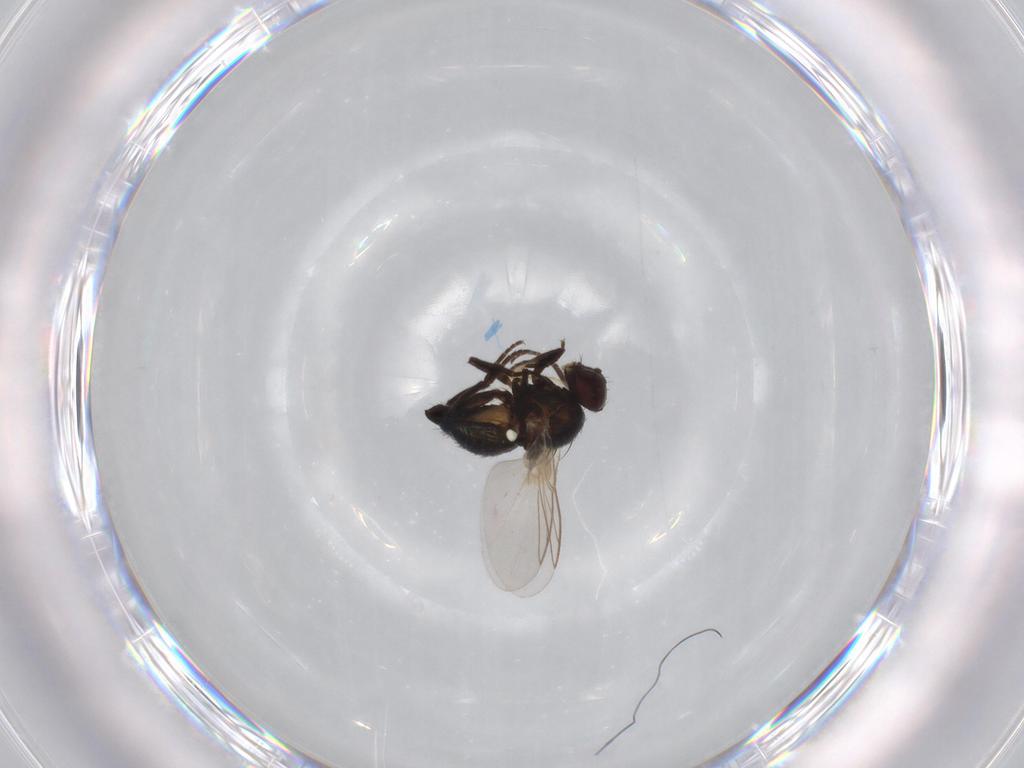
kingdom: Animalia
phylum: Arthropoda
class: Insecta
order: Diptera
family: Agromyzidae
